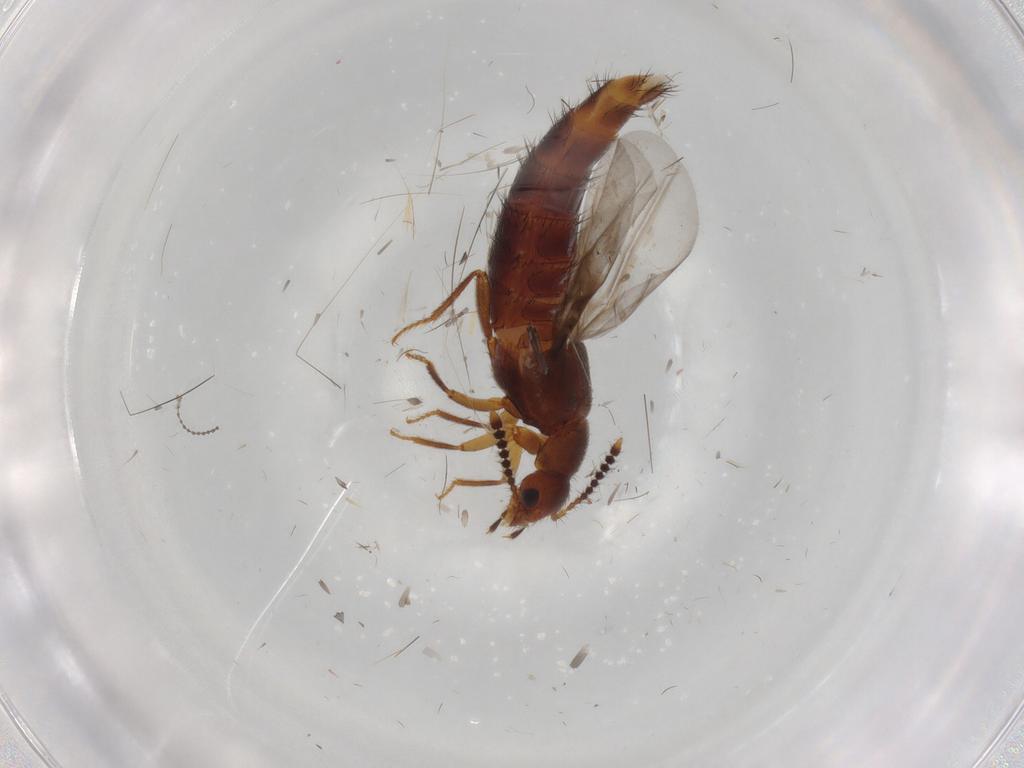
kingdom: Animalia
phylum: Arthropoda
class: Insecta
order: Coleoptera
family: Staphylinidae
